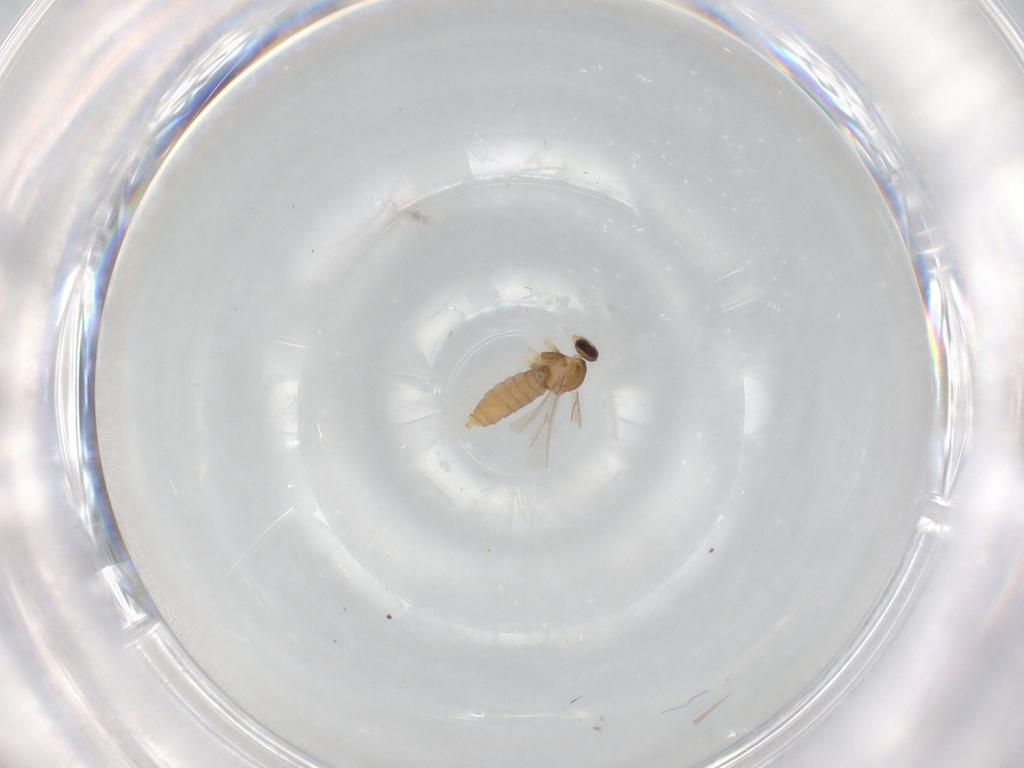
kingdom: Animalia
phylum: Arthropoda
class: Insecta
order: Diptera
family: Cecidomyiidae
